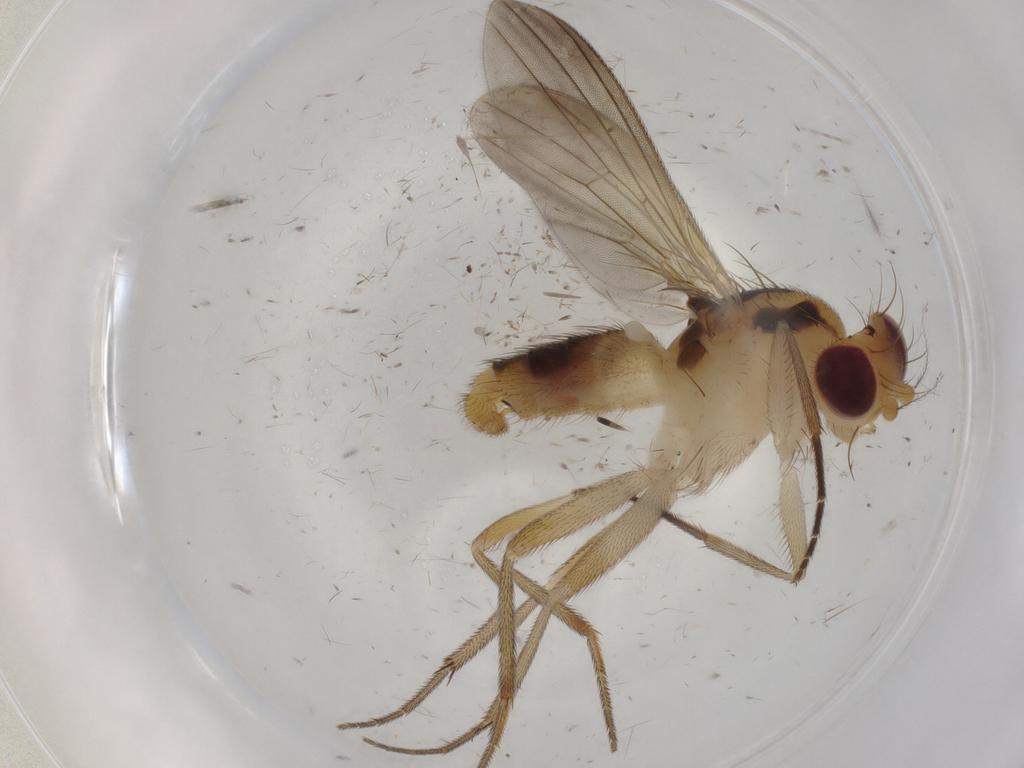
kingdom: Animalia
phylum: Arthropoda
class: Insecta
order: Diptera
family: Clusiidae
